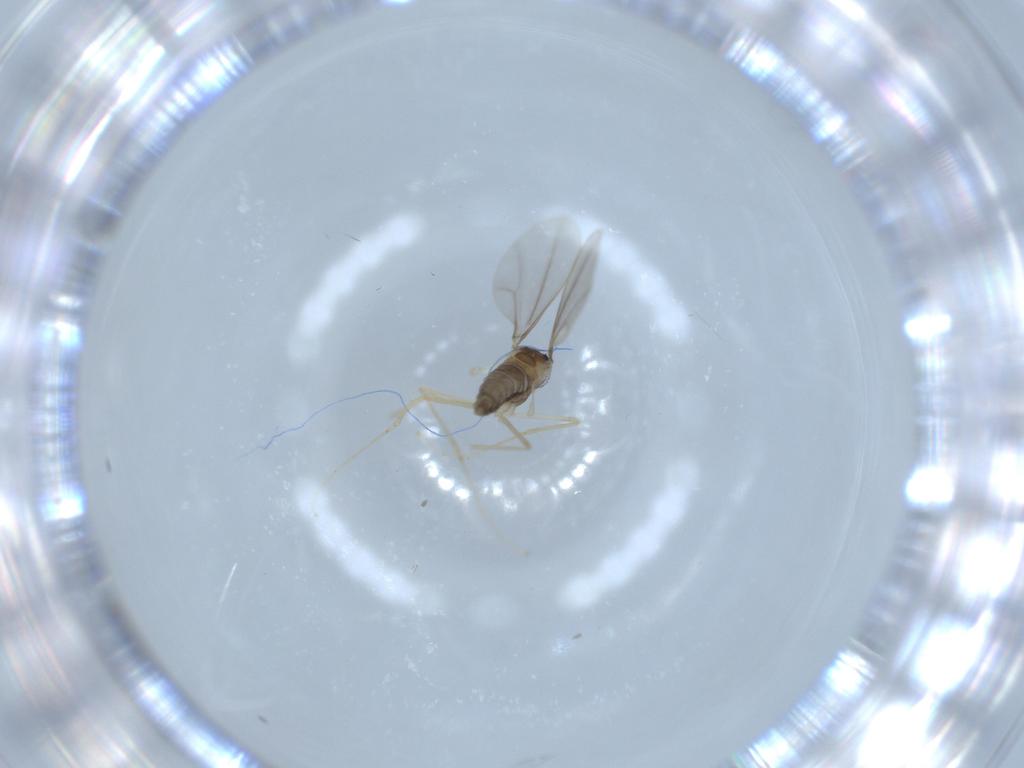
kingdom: Animalia
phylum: Arthropoda
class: Insecta
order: Diptera
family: Cecidomyiidae
